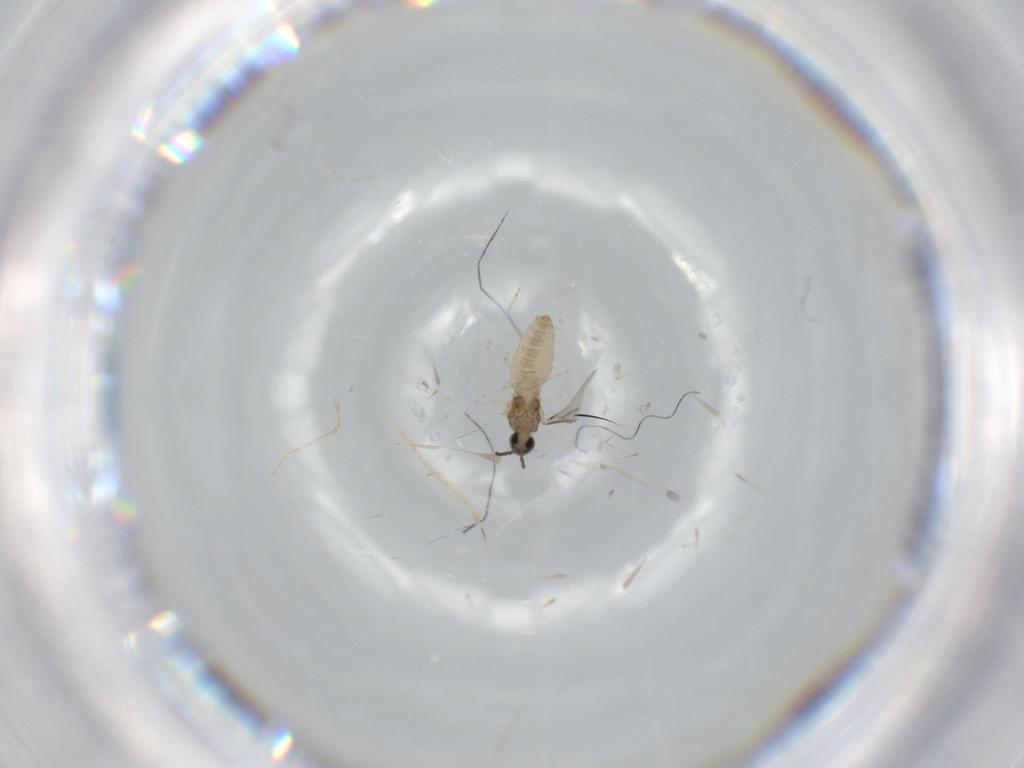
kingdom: Animalia
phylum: Arthropoda
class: Insecta
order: Diptera
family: Cecidomyiidae
